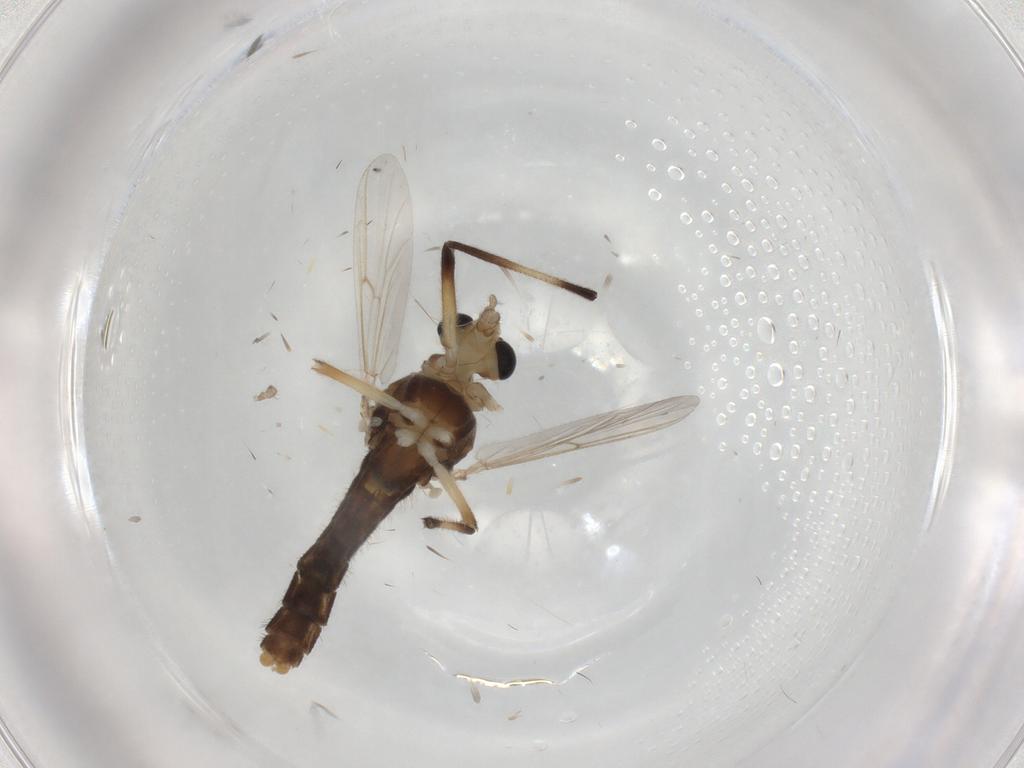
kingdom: Animalia
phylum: Arthropoda
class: Insecta
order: Diptera
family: Chironomidae
